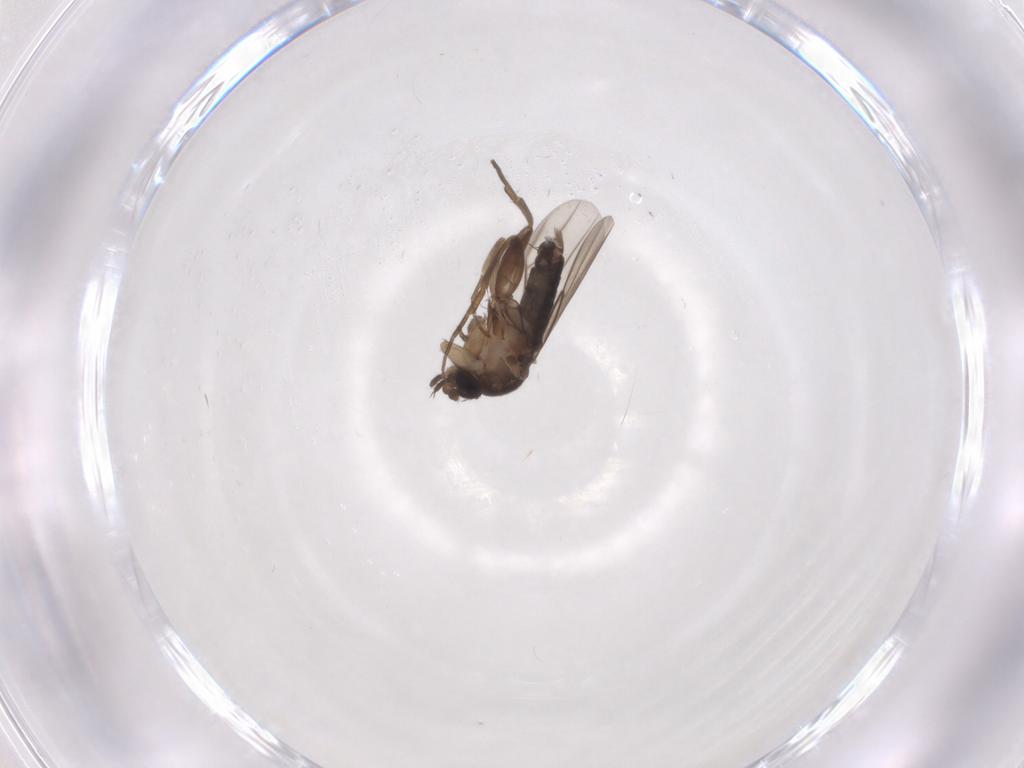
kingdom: Animalia
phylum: Arthropoda
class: Insecta
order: Diptera
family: Phoridae
